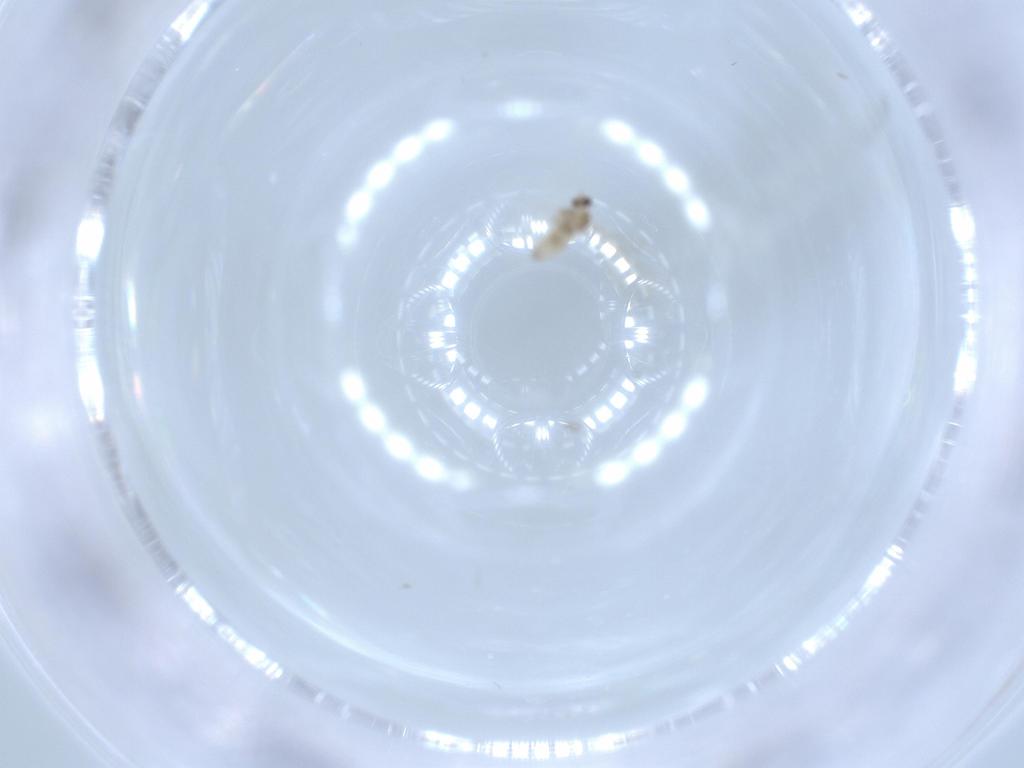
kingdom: Animalia
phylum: Arthropoda
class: Insecta
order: Diptera
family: Cecidomyiidae
